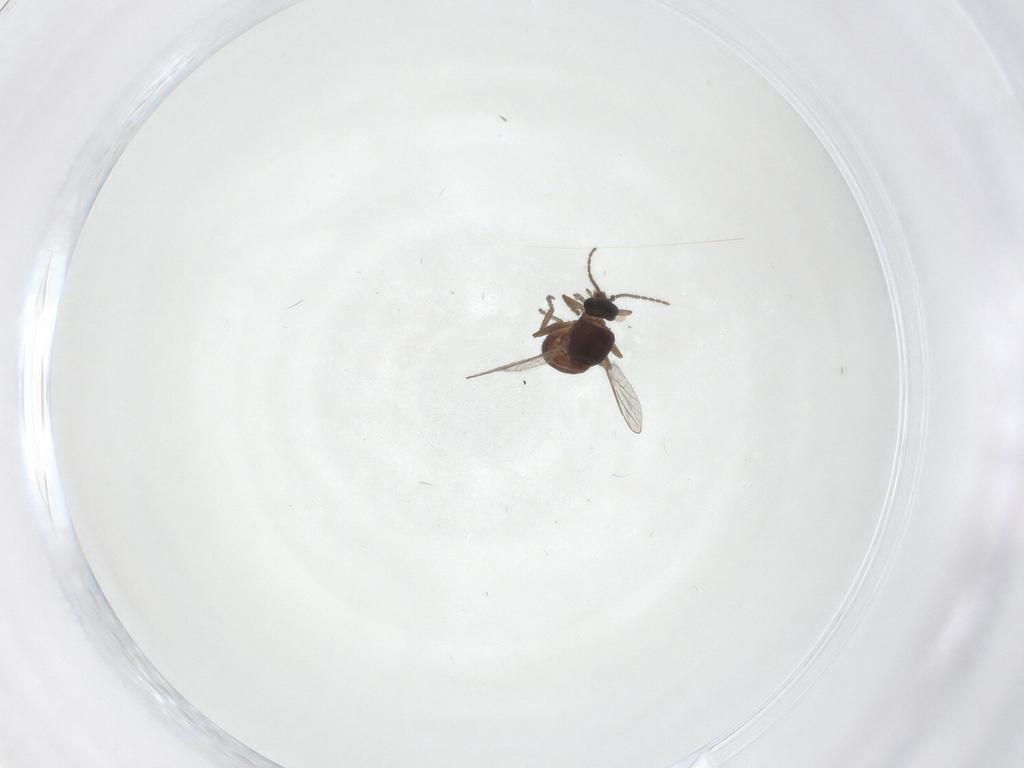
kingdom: Animalia
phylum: Arthropoda
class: Insecta
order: Diptera
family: Ceratopogonidae
